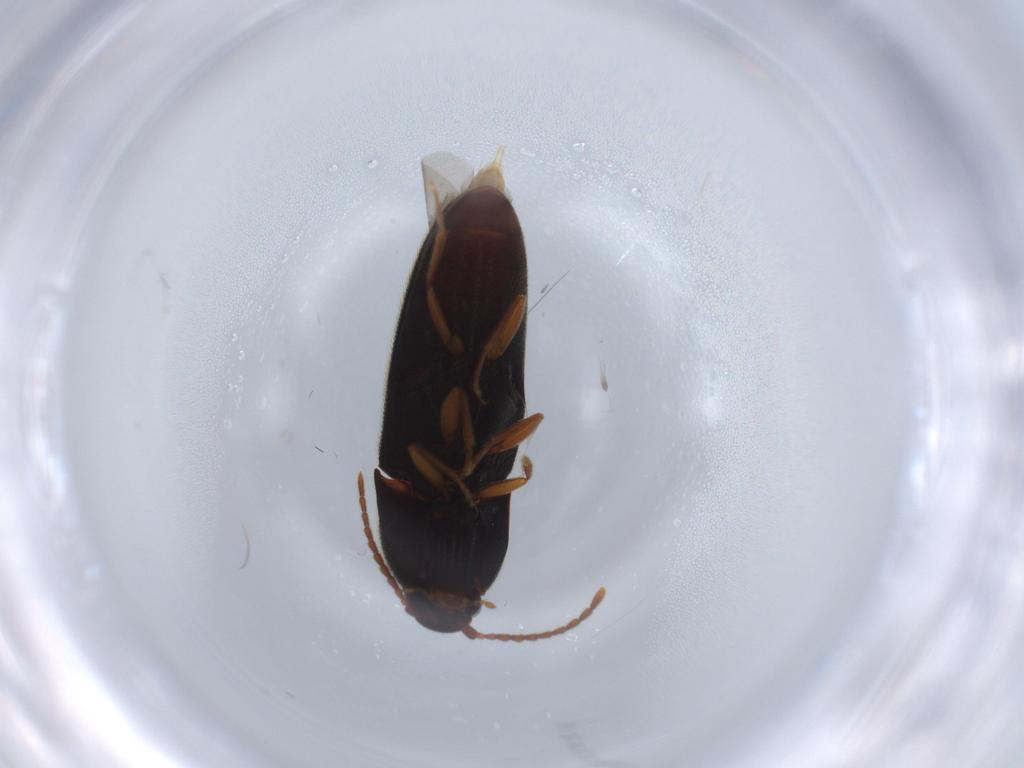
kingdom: Animalia
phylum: Arthropoda
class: Insecta
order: Coleoptera
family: Elateridae
